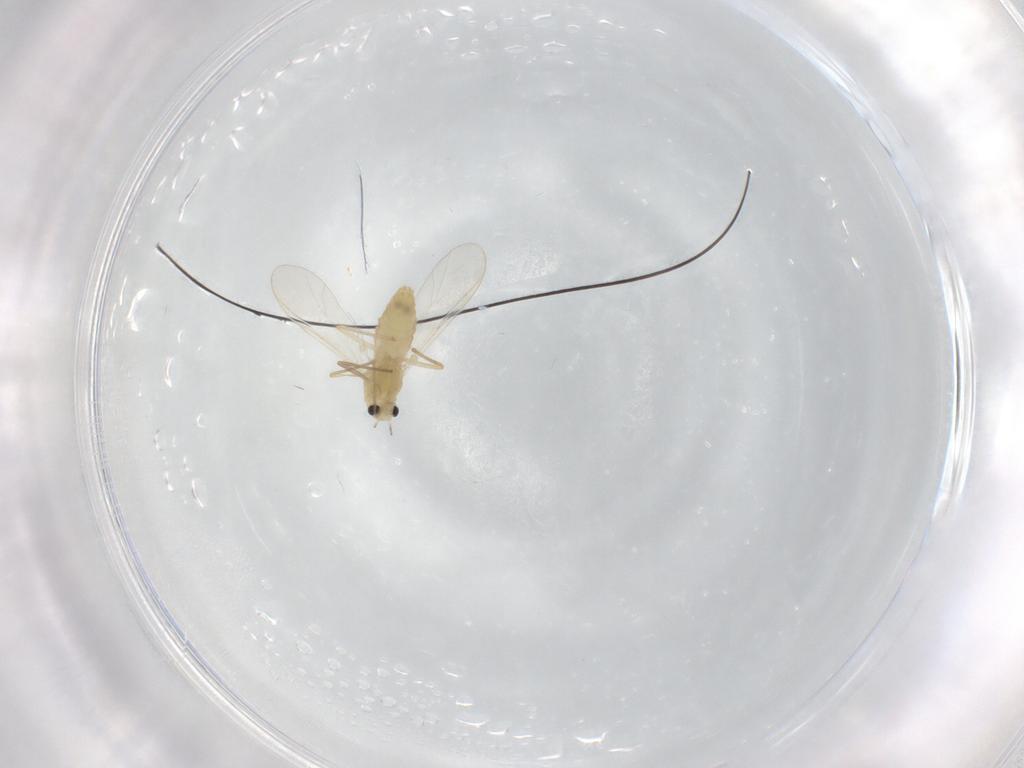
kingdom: Animalia
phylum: Arthropoda
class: Insecta
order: Diptera
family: Chironomidae
